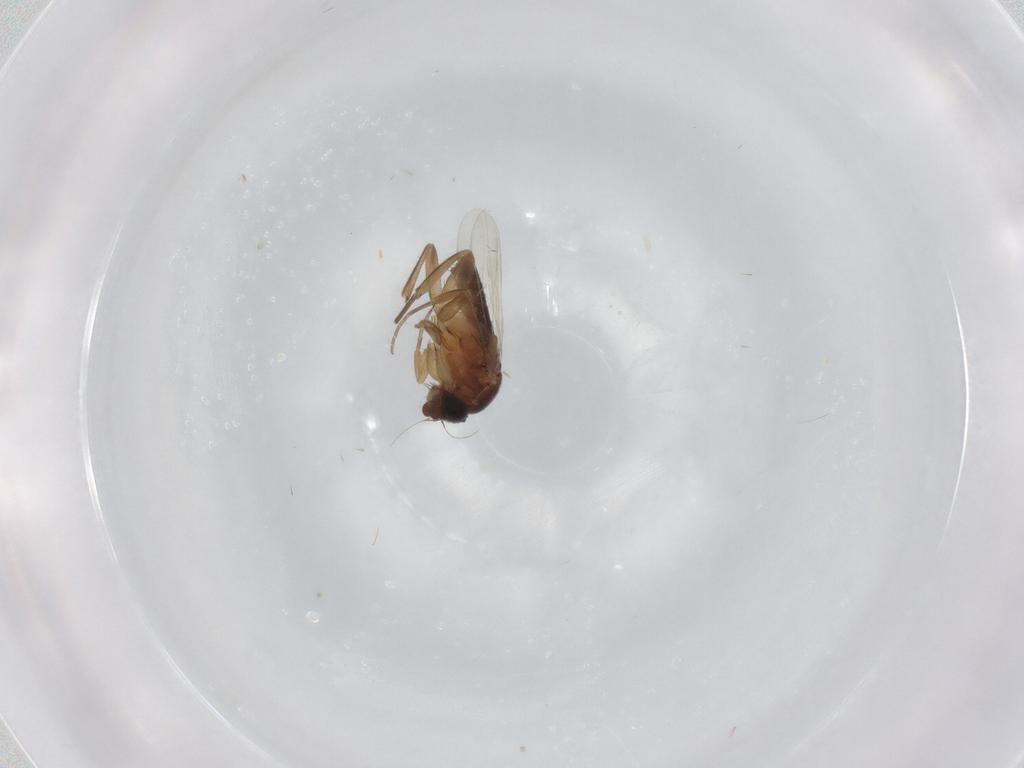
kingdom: Animalia
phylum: Arthropoda
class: Insecta
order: Diptera
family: Phoridae
